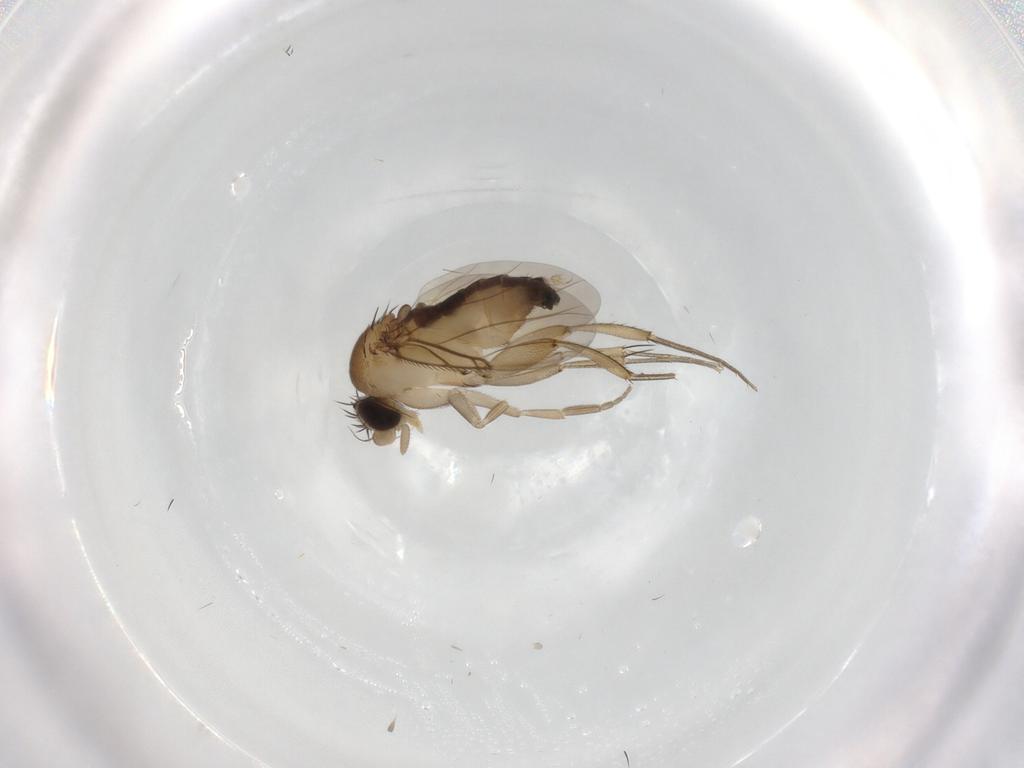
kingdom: Animalia
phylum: Arthropoda
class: Insecta
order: Diptera
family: Phoridae
